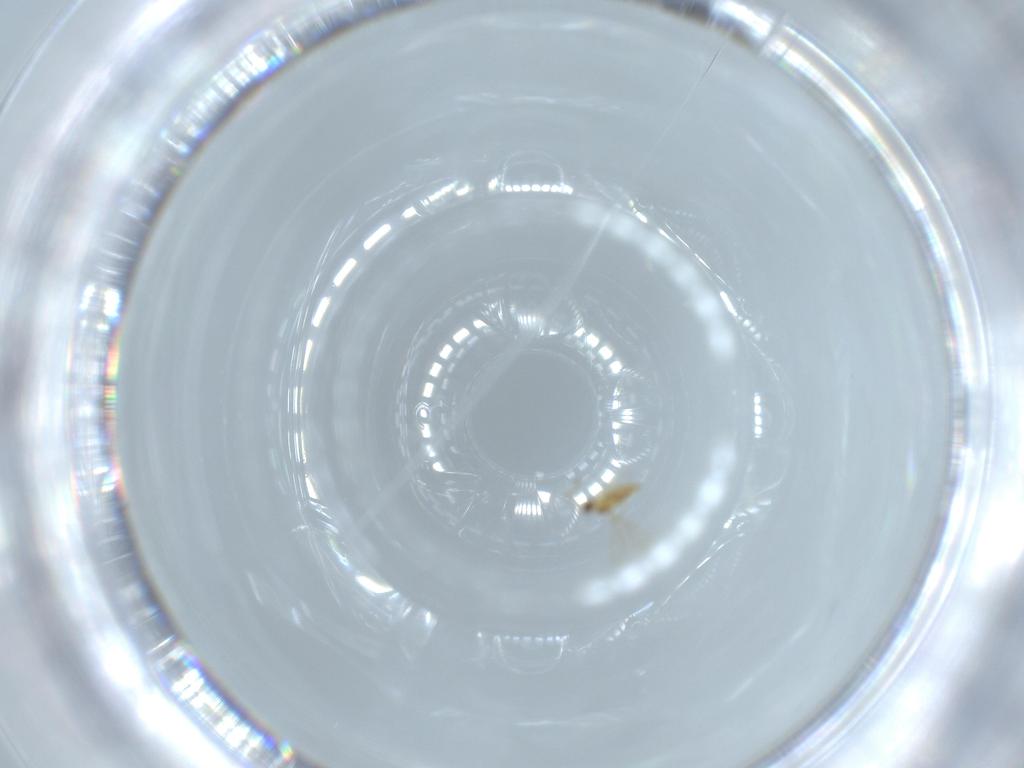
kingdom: Animalia
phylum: Arthropoda
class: Insecta
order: Hymenoptera
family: Mymaridae
